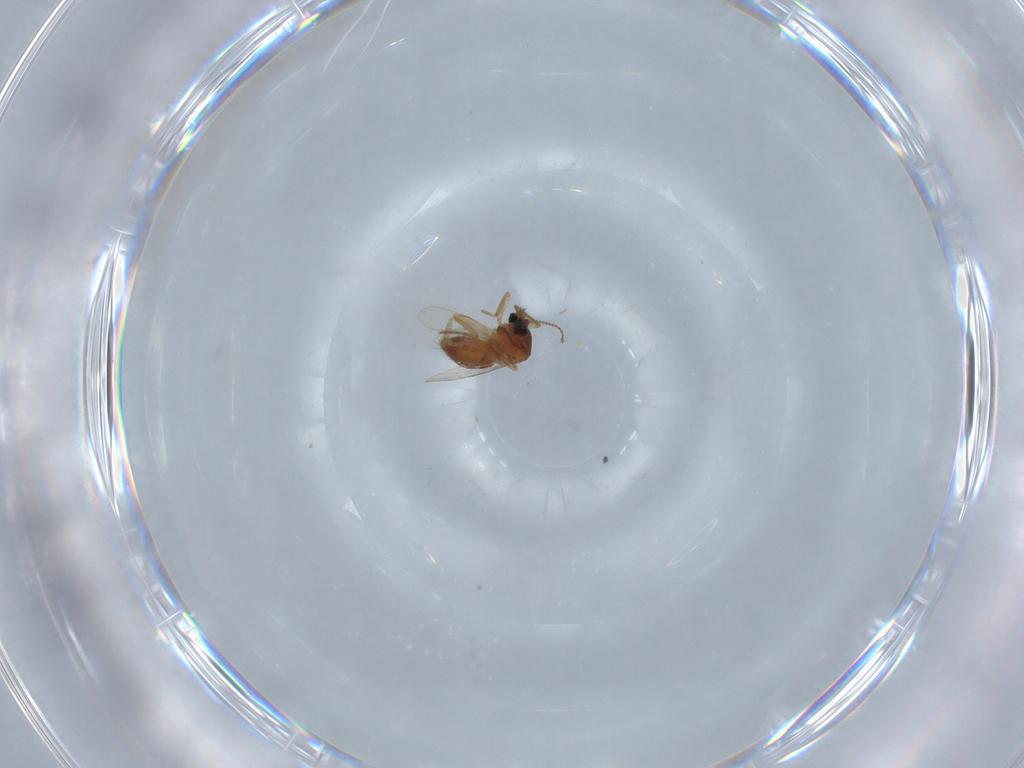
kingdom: Animalia
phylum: Arthropoda
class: Insecta
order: Diptera
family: Ceratopogonidae
